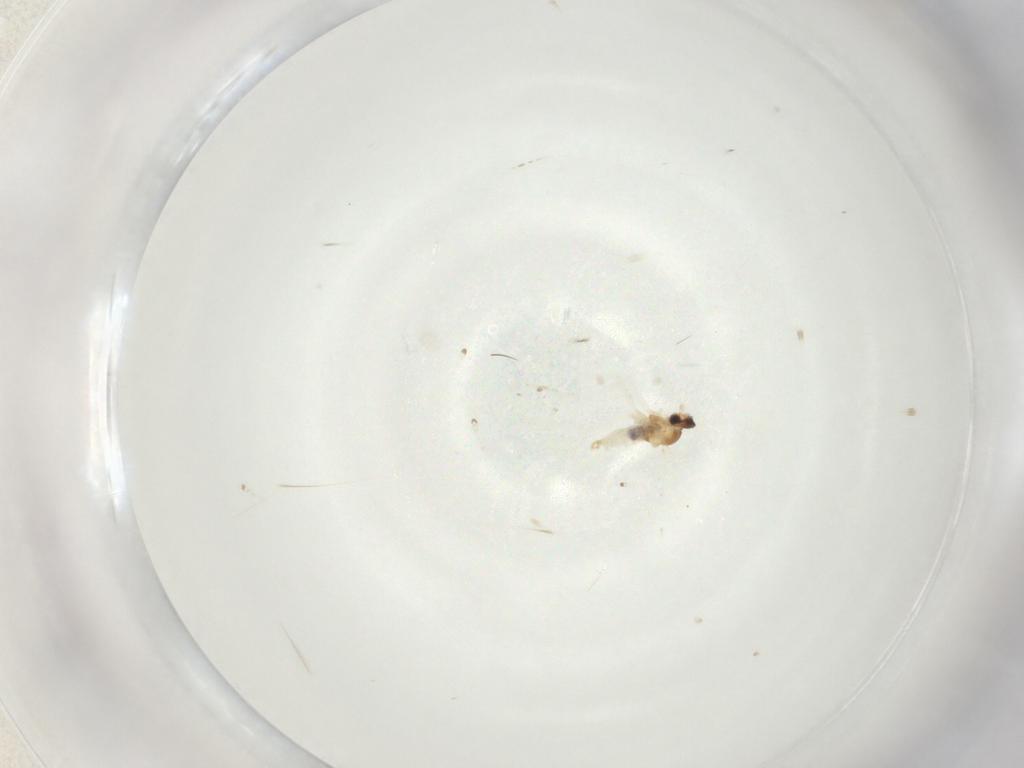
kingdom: Animalia
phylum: Arthropoda
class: Insecta
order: Diptera
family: Cecidomyiidae
